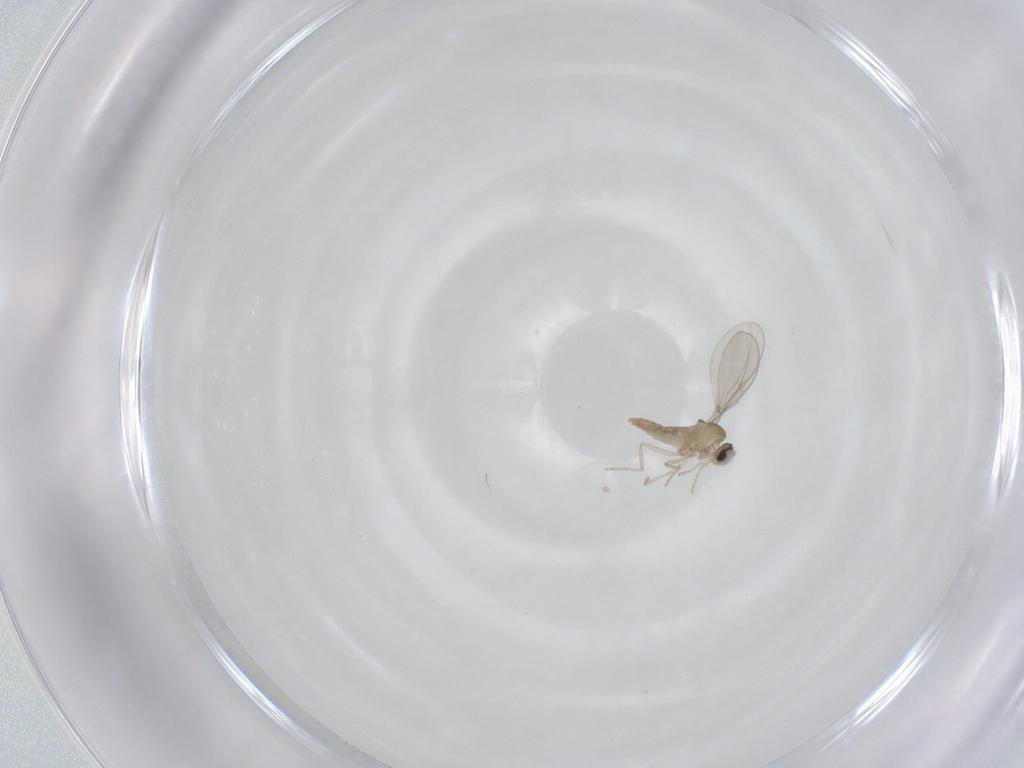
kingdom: Animalia
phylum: Arthropoda
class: Insecta
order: Diptera
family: Cecidomyiidae
